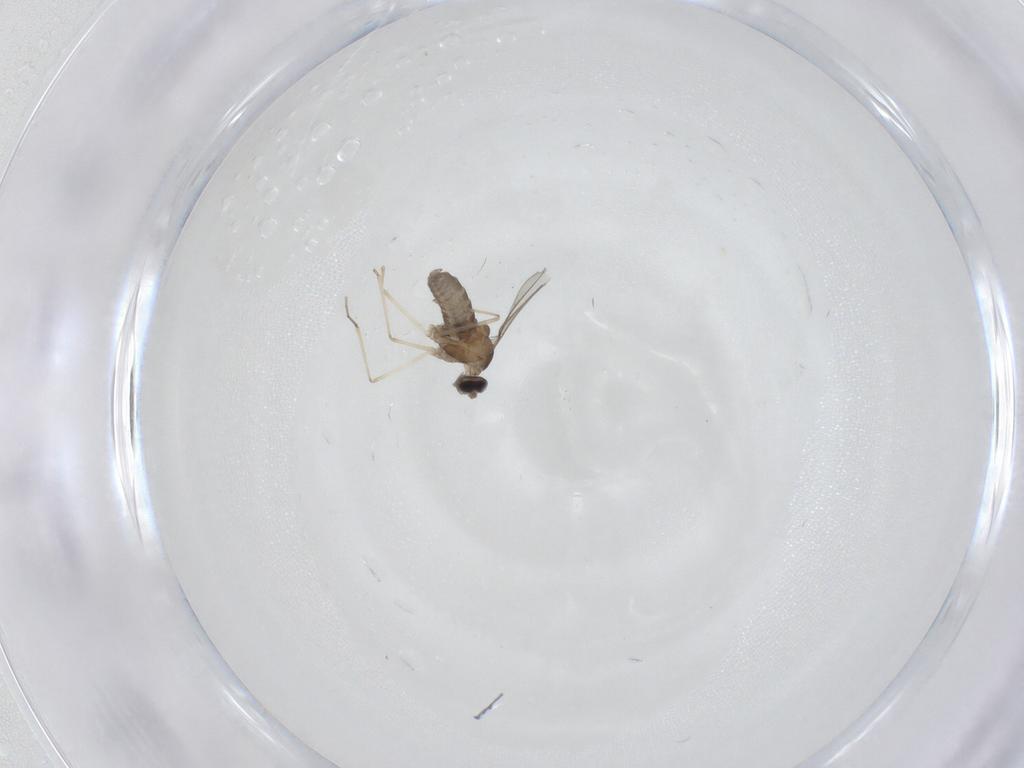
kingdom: Animalia
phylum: Arthropoda
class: Insecta
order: Diptera
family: Cecidomyiidae
